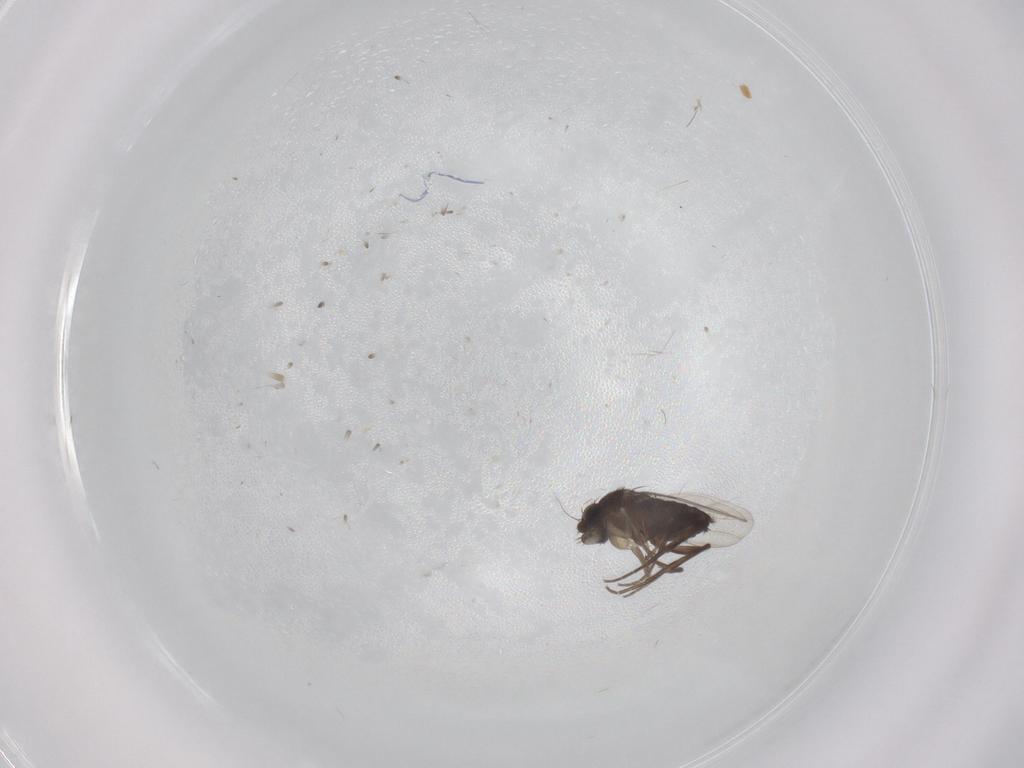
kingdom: Animalia
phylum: Arthropoda
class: Insecta
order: Diptera
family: Phoridae
